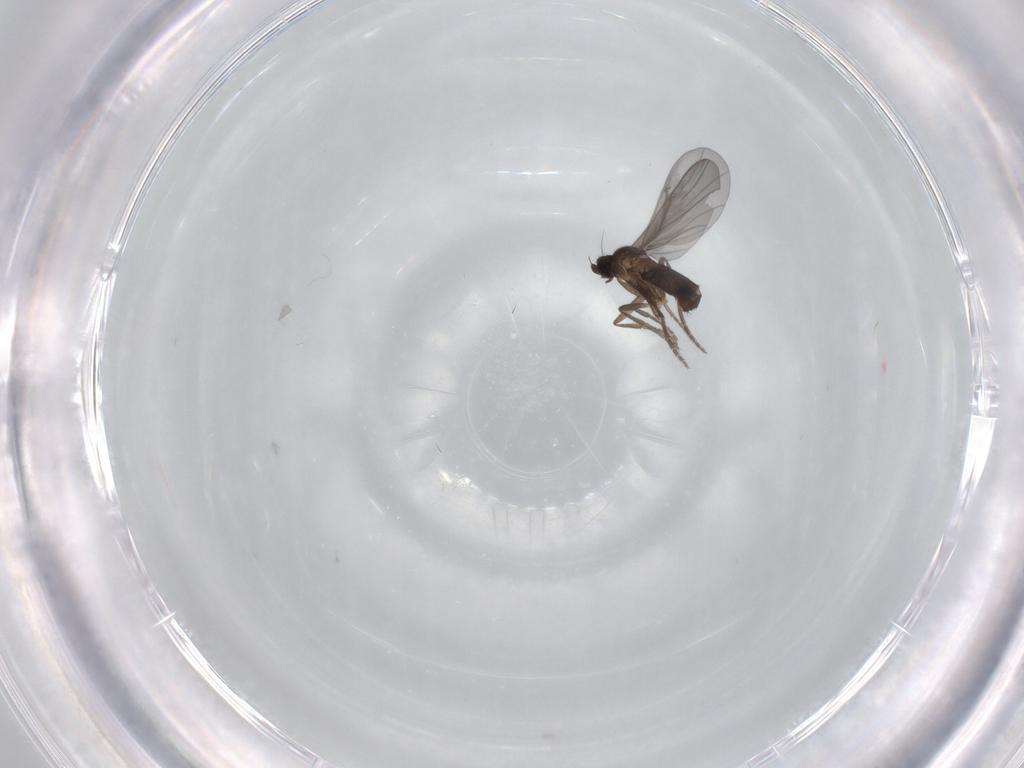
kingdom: Animalia
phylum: Arthropoda
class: Insecta
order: Diptera
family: Phoridae
